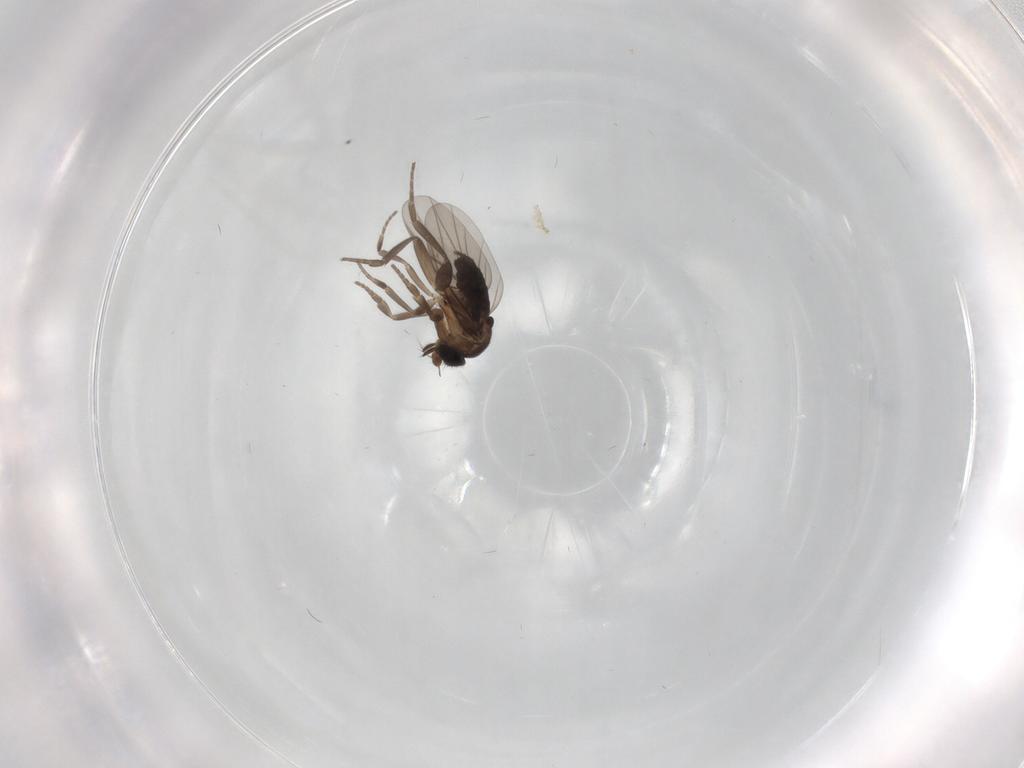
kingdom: Animalia
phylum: Arthropoda
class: Insecta
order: Diptera
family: Phoridae
